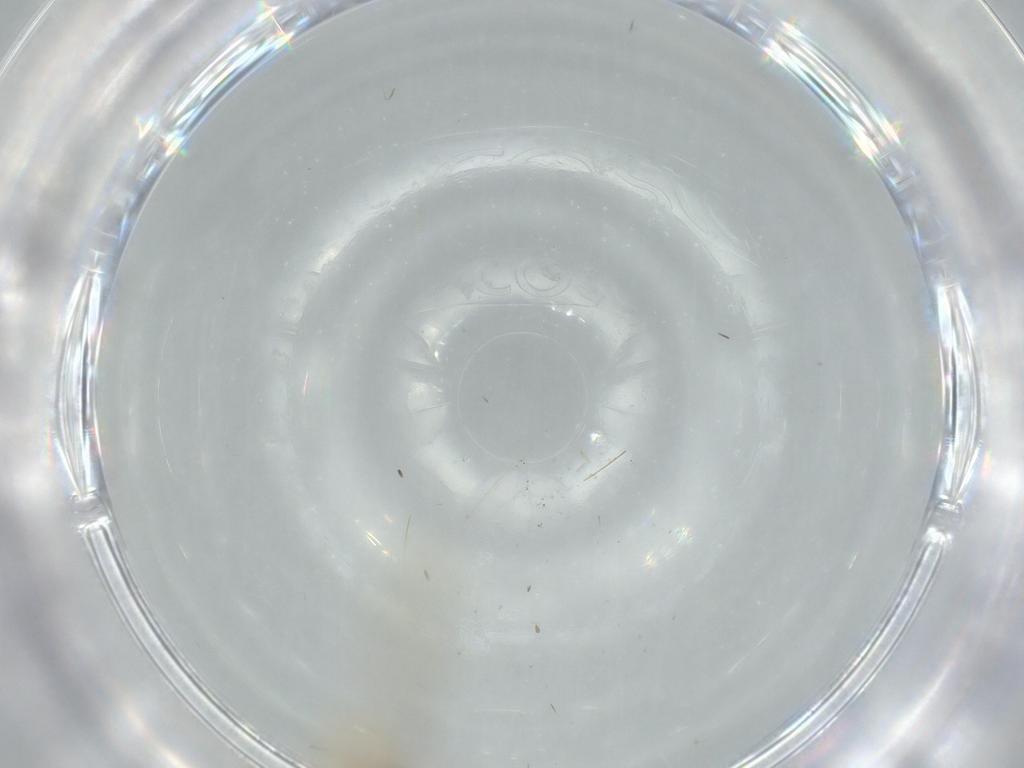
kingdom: Animalia
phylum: Arthropoda
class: Insecta
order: Diptera
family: Cecidomyiidae
